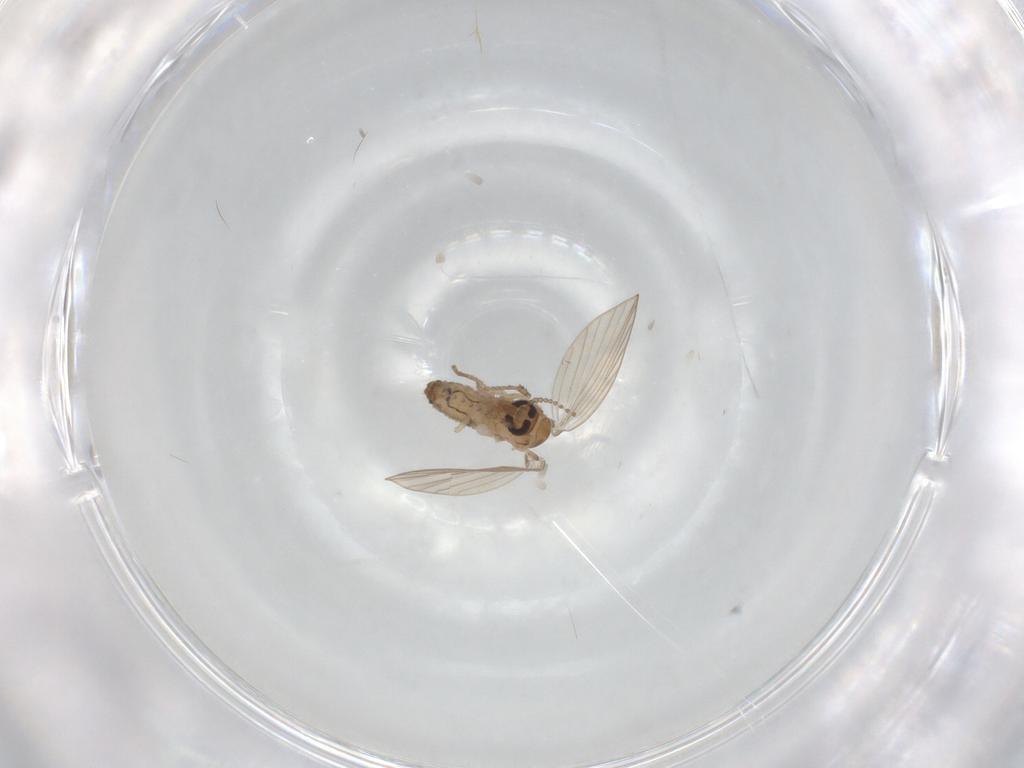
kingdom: Animalia
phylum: Arthropoda
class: Insecta
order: Diptera
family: Psychodidae
